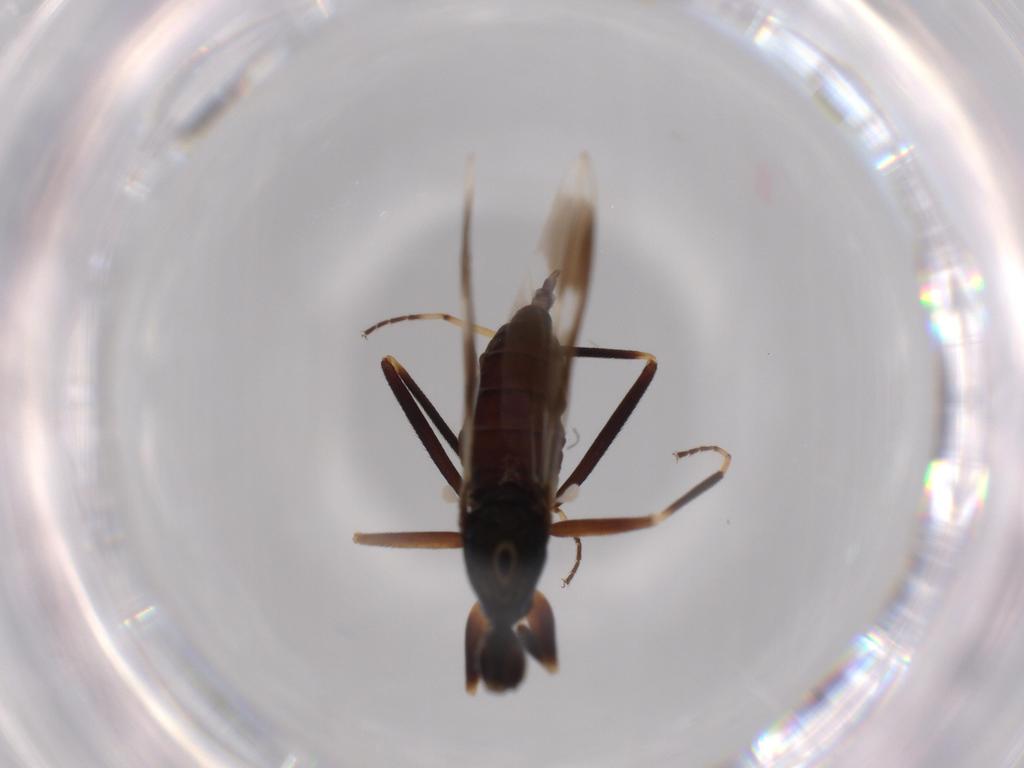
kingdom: Animalia
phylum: Arthropoda
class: Insecta
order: Diptera
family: Hybotidae
